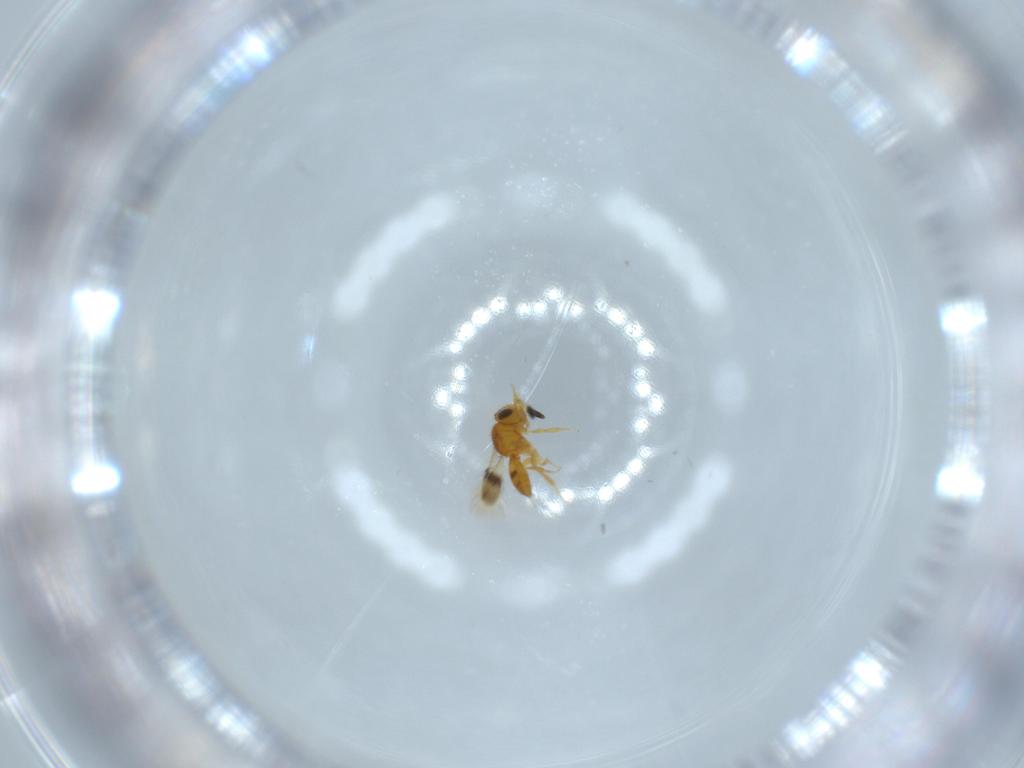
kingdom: Animalia
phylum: Arthropoda
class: Insecta
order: Hymenoptera
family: Scelionidae
